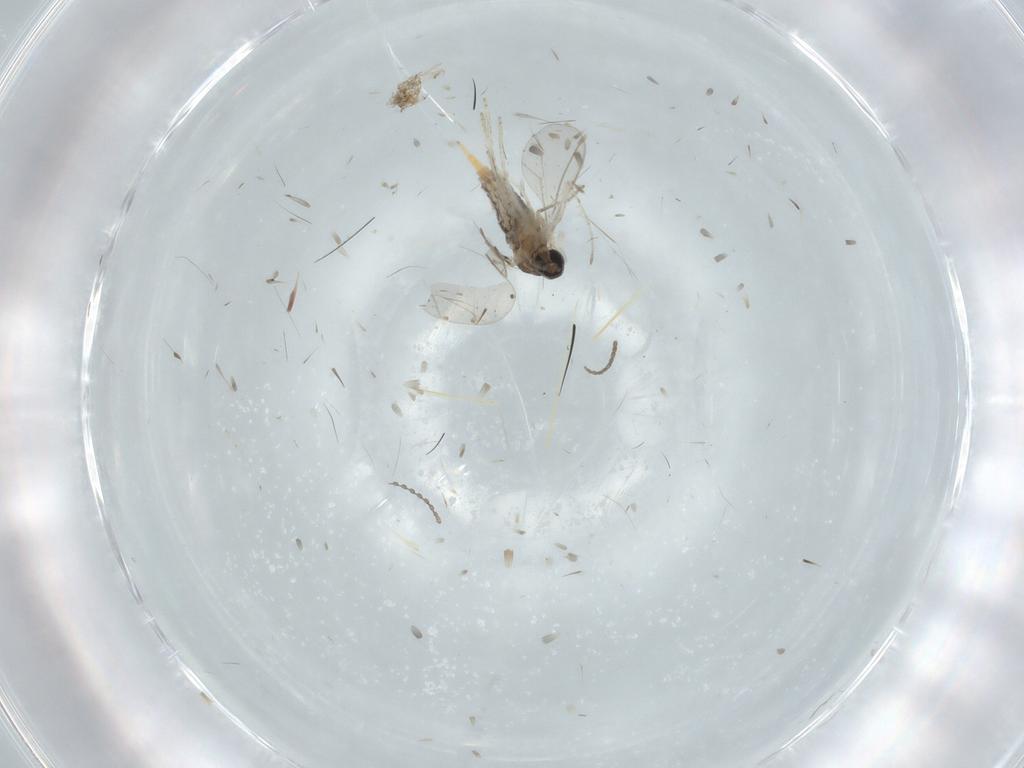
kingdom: Animalia
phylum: Arthropoda
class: Insecta
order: Diptera
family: Cecidomyiidae
